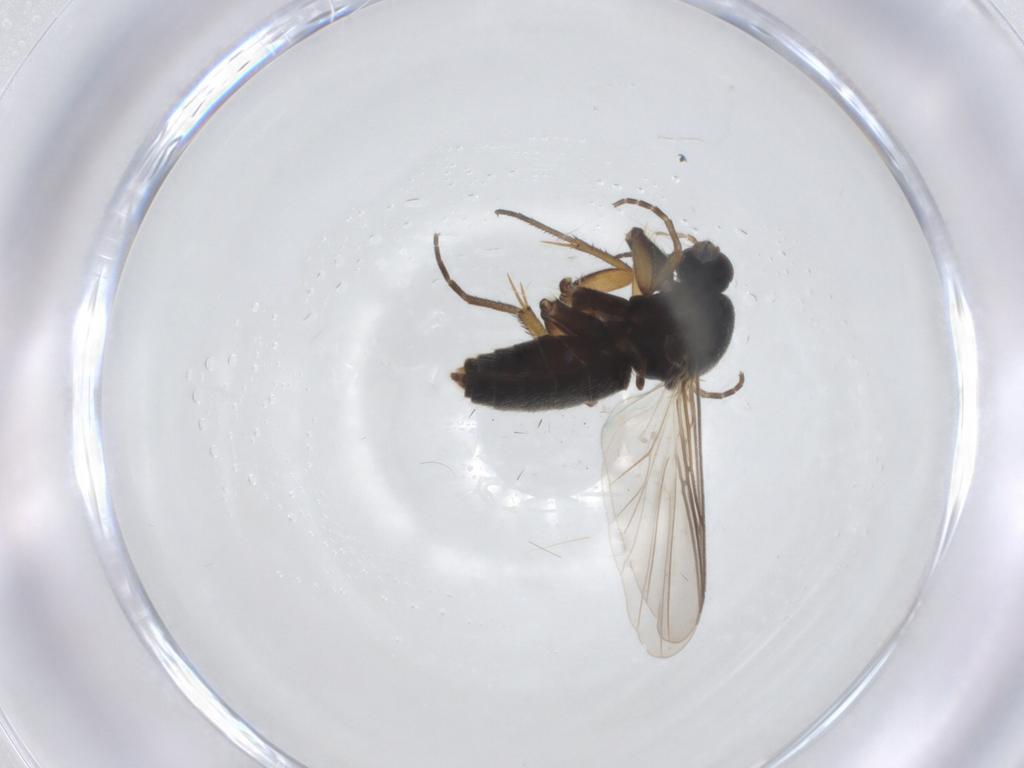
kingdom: Animalia
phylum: Arthropoda
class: Insecta
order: Diptera
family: Mycetophilidae
